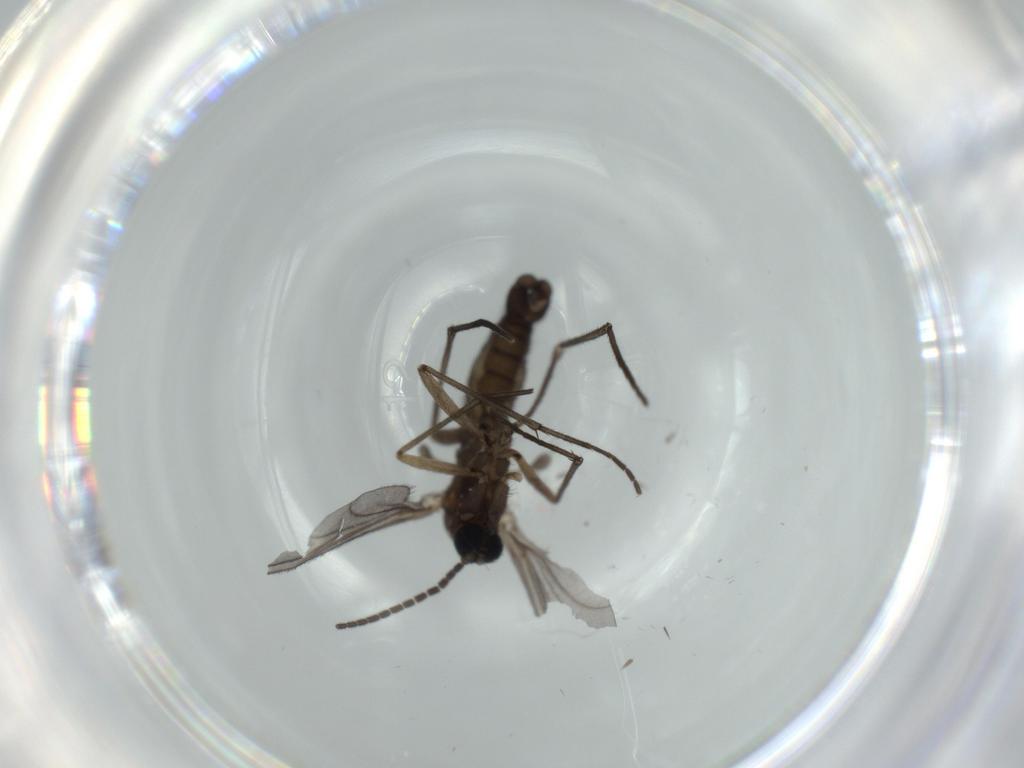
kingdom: Animalia
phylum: Arthropoda
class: Insecta
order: Diptera
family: Sciaridae
